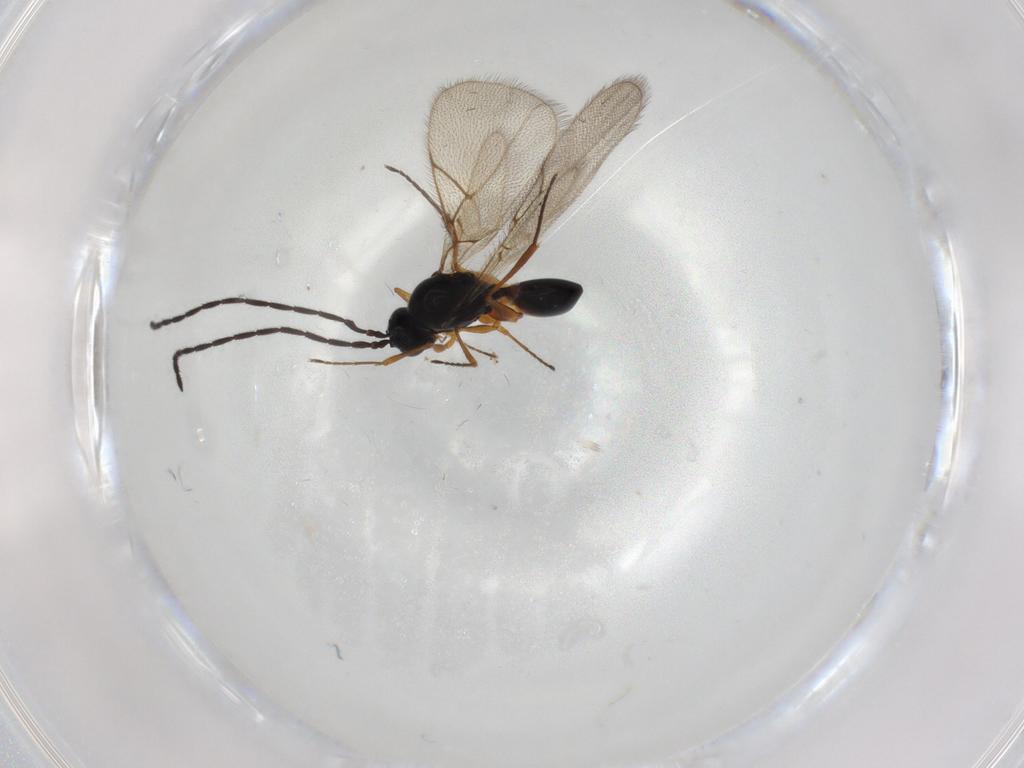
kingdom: Animalia
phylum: Arthropoda
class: Insecta
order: Hymenoptera
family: Figitidae
